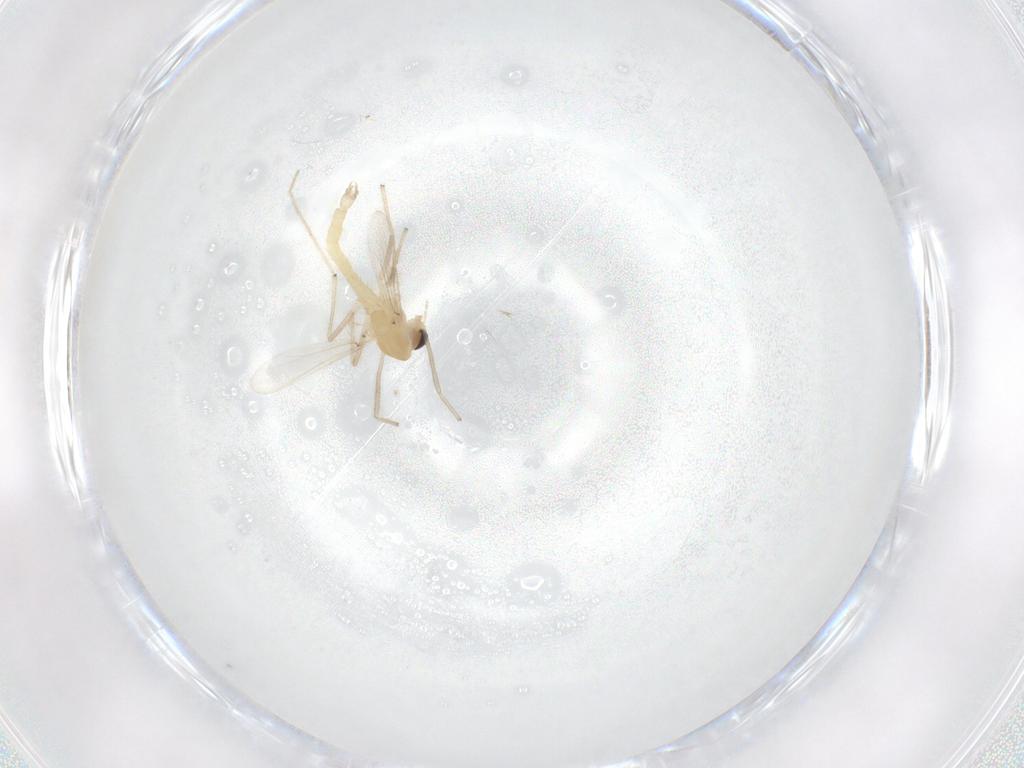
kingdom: Animalia
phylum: Arthropoda
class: Insecta
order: Diptera
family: Chironomidae
